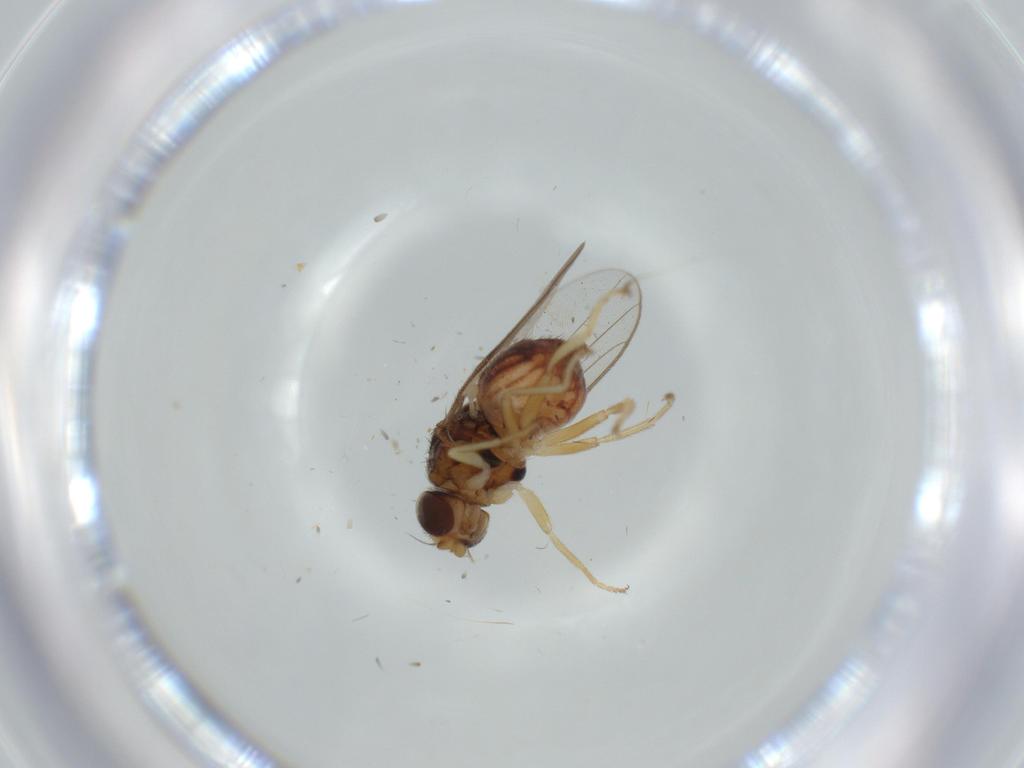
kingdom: Animalia
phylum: Arthropoda
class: Insecta
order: Diptera
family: Chloropidae
